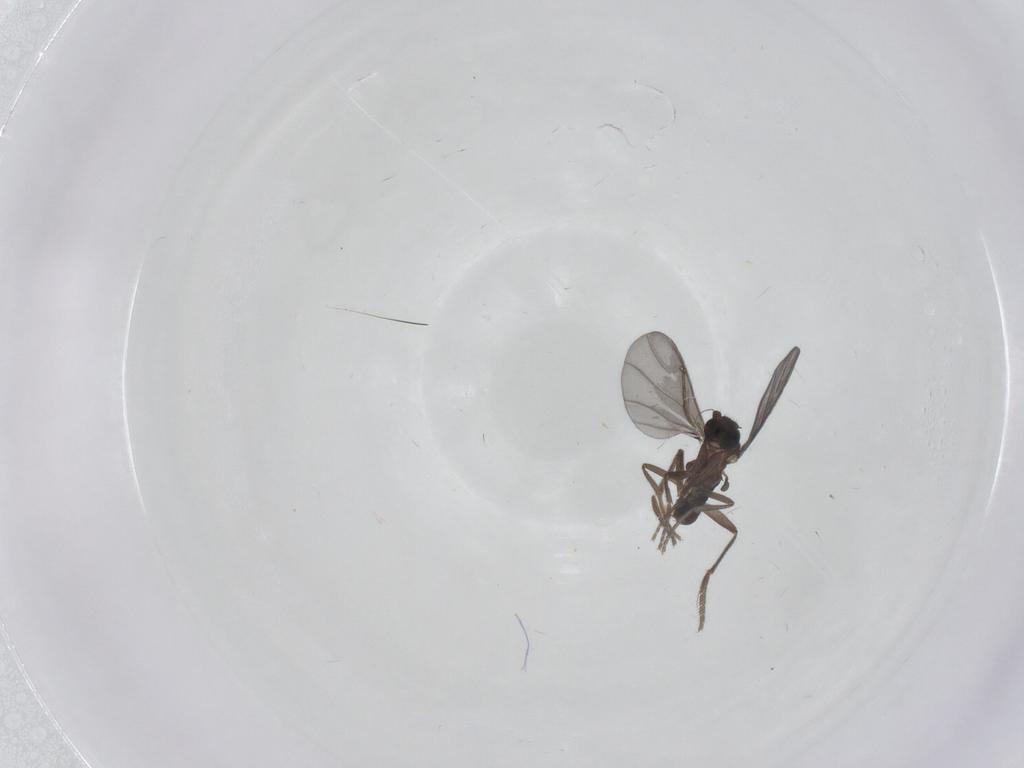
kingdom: Animalia
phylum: Arthropoda
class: Insecta
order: Diptera
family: Phoridae
